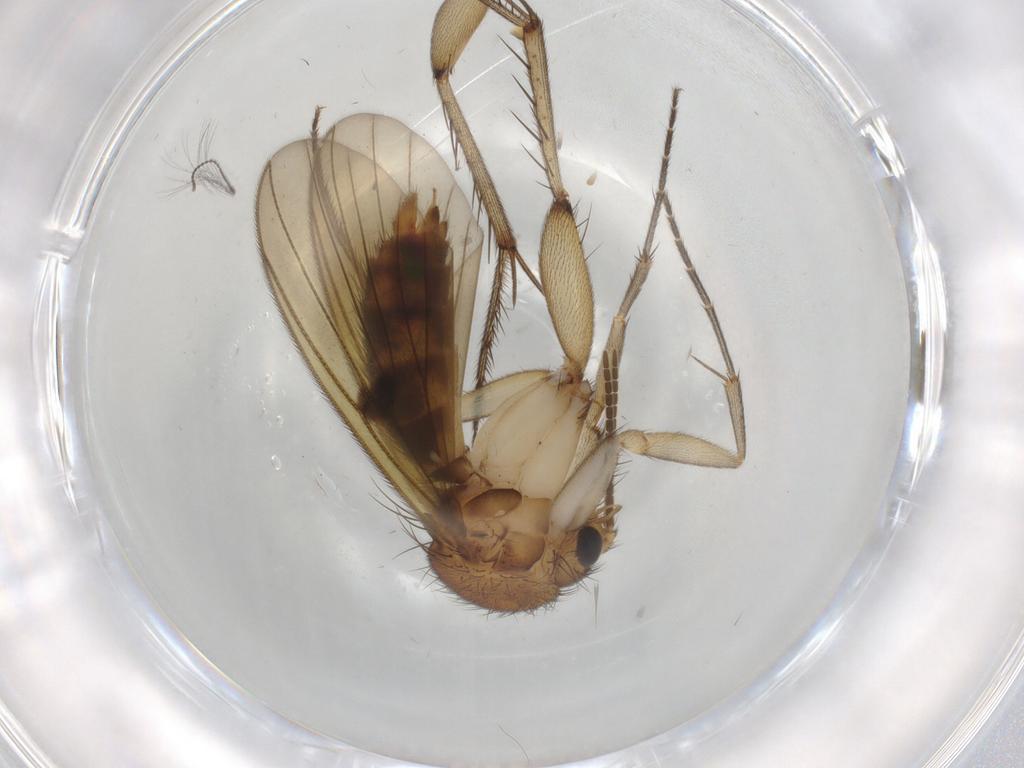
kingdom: Animalia
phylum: Arthropoda
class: Insecta
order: Diptera
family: Mycetophilidae
